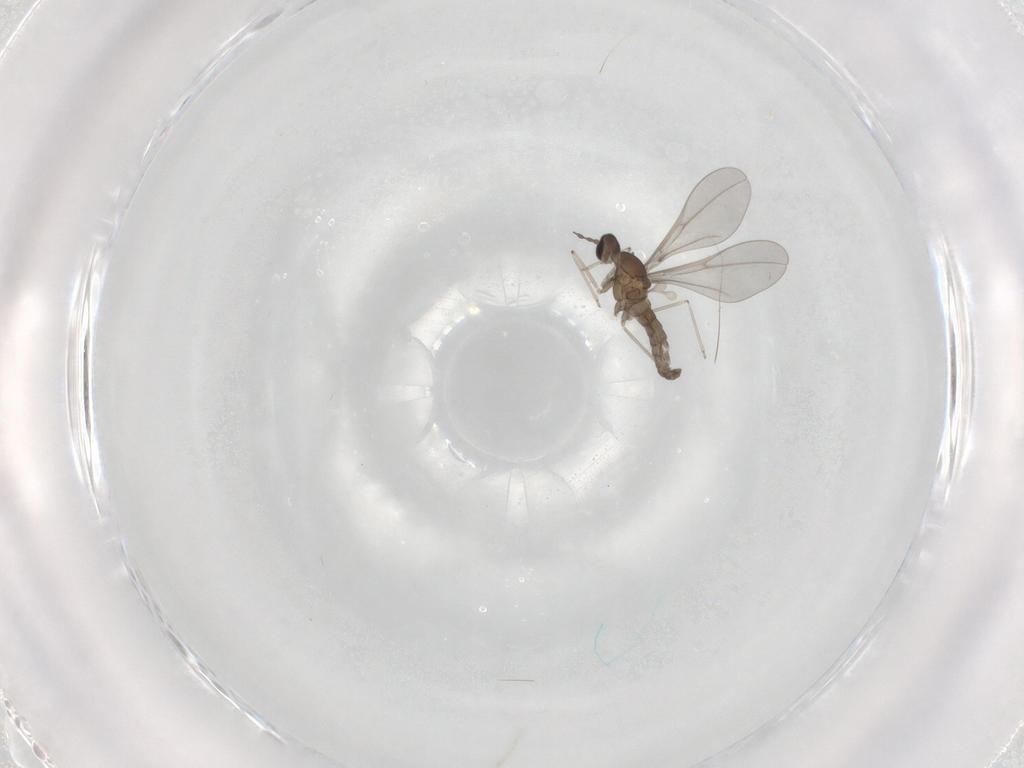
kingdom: Animalia
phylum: Arthropoda
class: Insecta
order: Diptera
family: Cecidomyiidae
